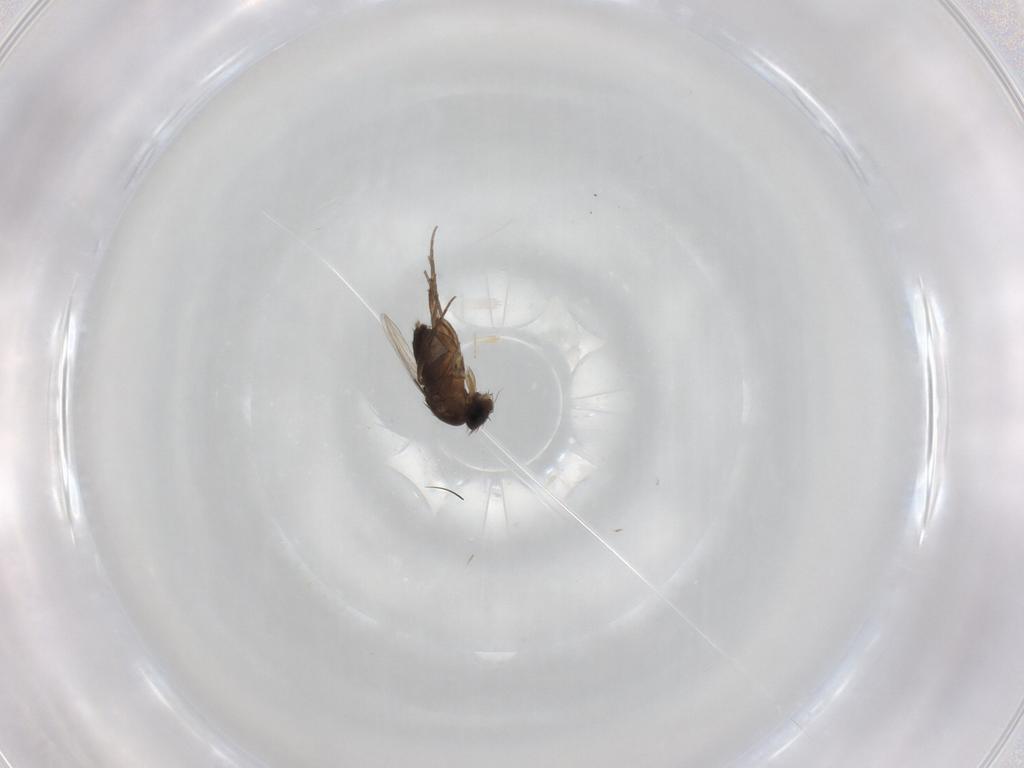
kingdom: Animalia
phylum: Arthropoda
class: Insecta
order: Diptera
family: Phoridae
